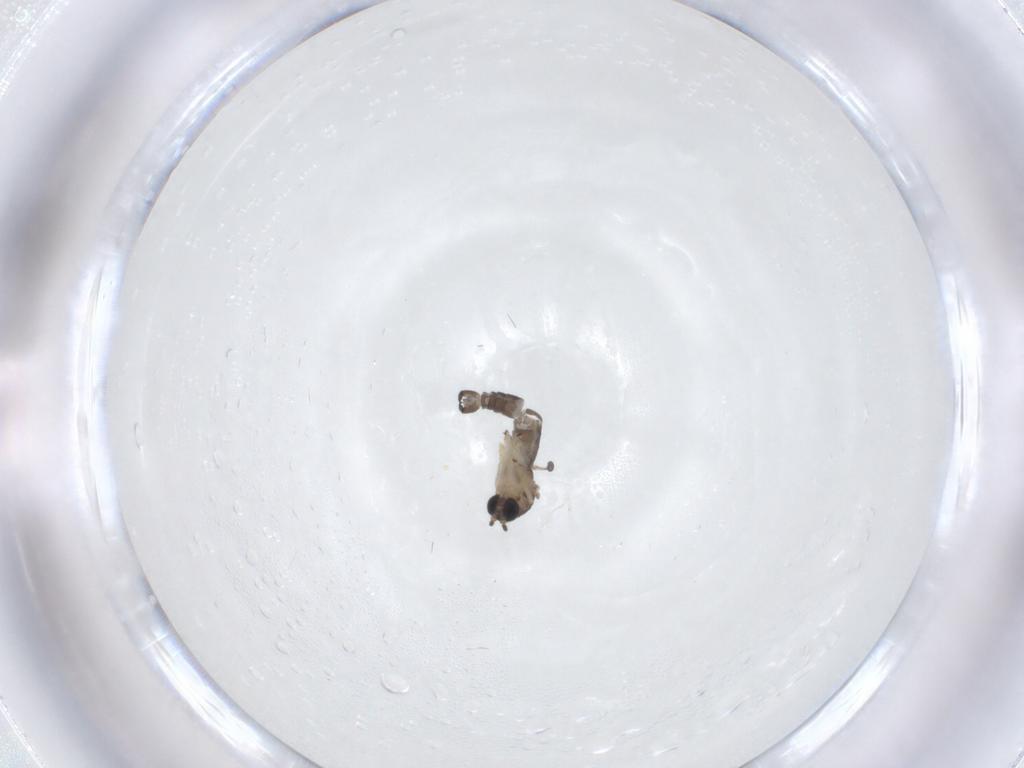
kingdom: Animalia
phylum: Arthropoda
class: Insecta
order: Diptera
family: Sciaridae
